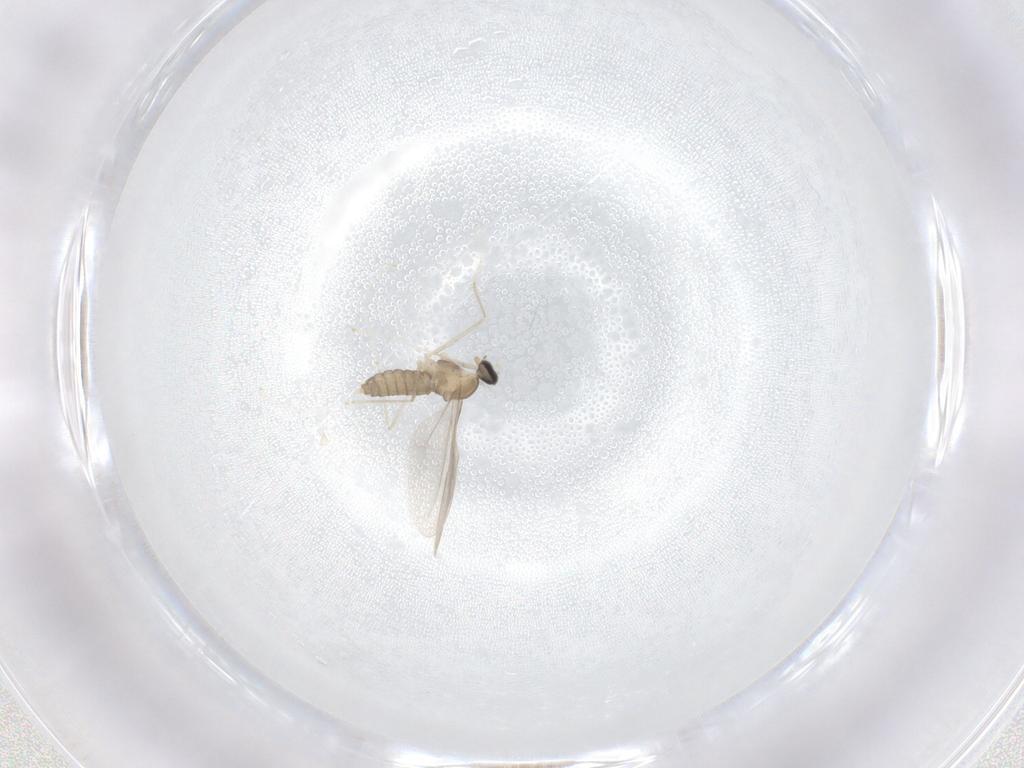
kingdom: Animalia
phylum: Arthropoda
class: Insecta
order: Diptera
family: Cecidomyiidae
